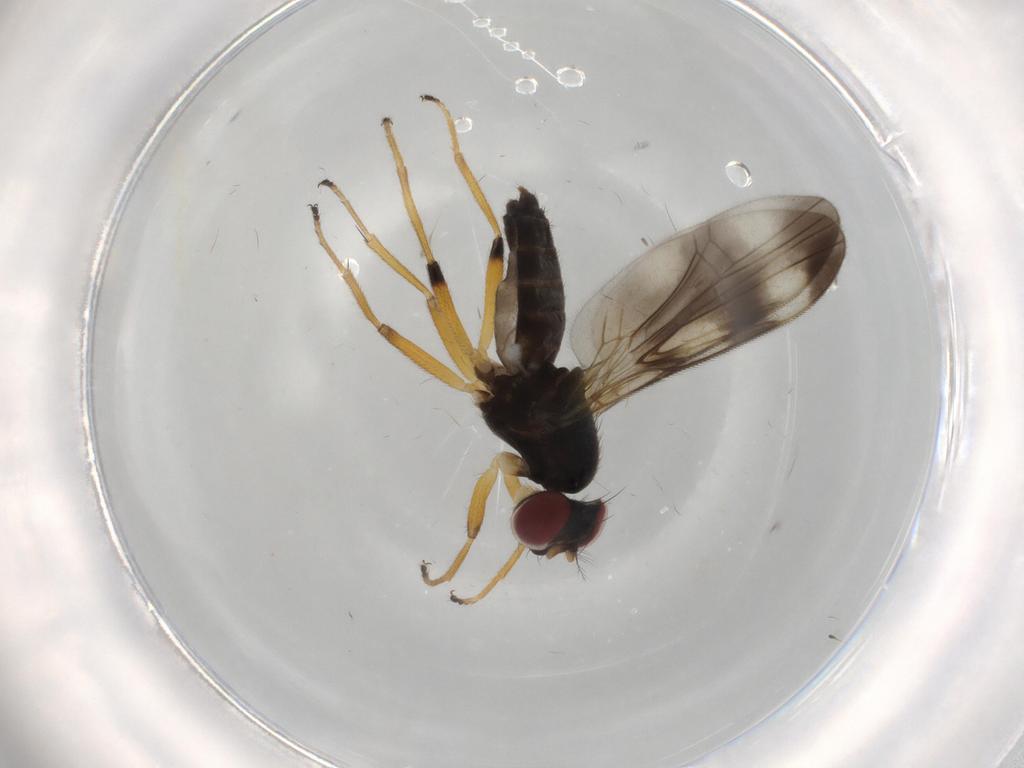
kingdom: Animalia
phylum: Arthropoda
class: Insecta
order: Diptera
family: Periscelididae
